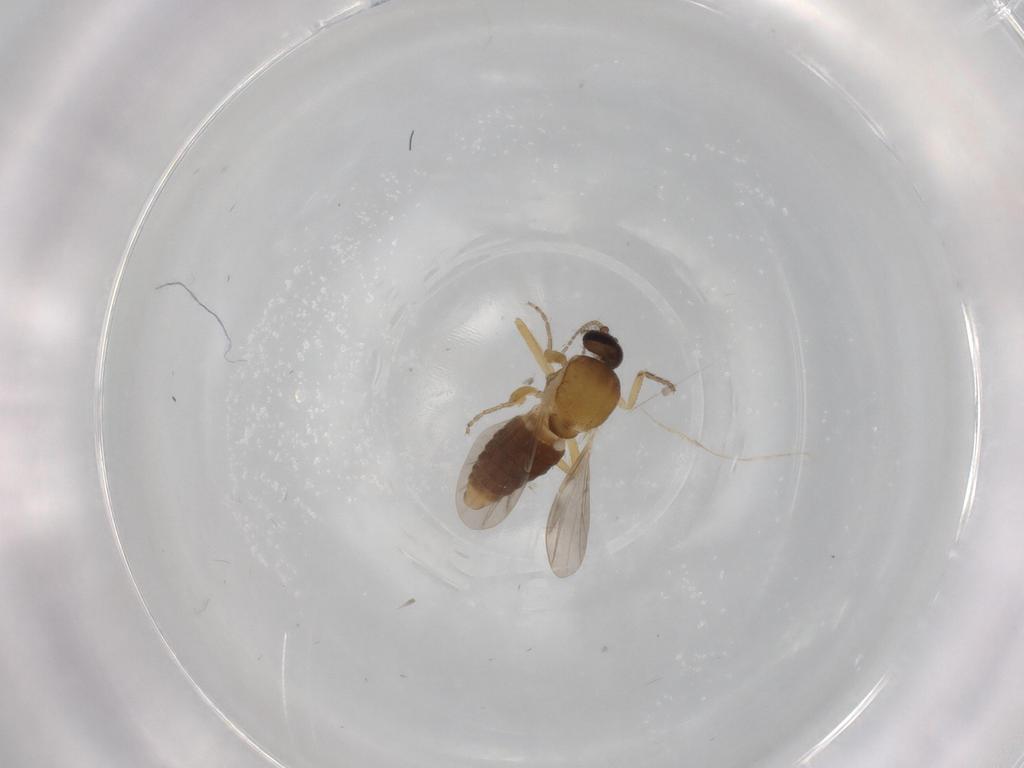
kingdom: Animalia
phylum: Arthropoda
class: Insecta
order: Diptera
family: Ceratopogonidae
